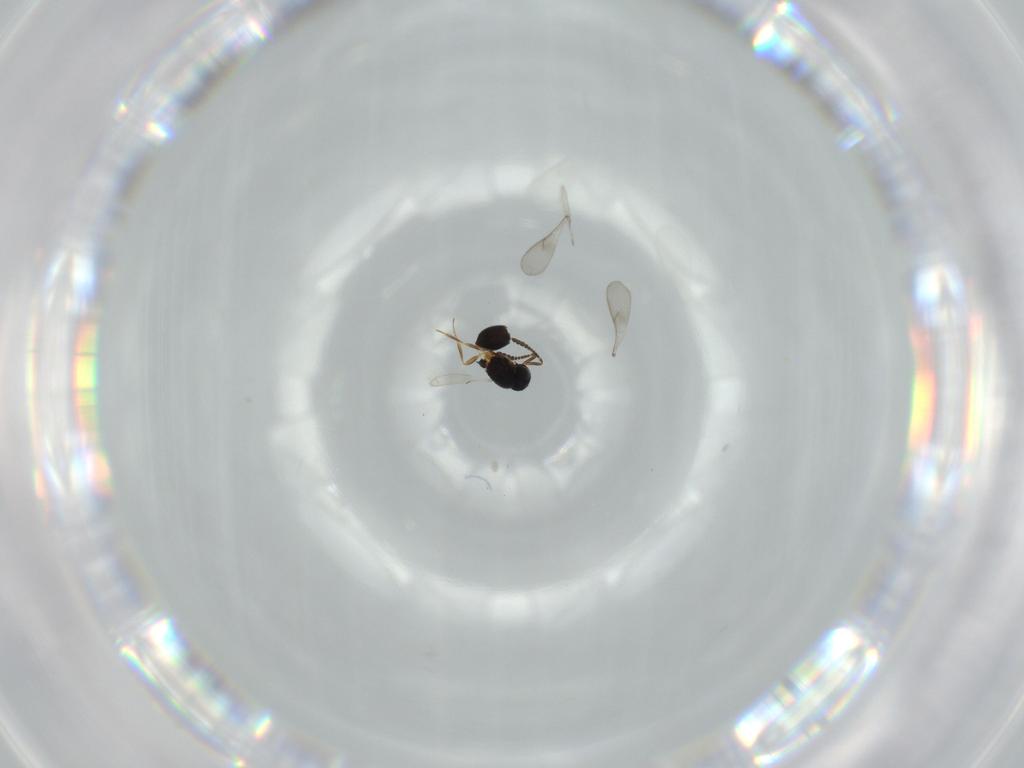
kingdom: Animalia
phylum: Arthropoda
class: Insecta
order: Hymenoptera
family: Scelionidae
